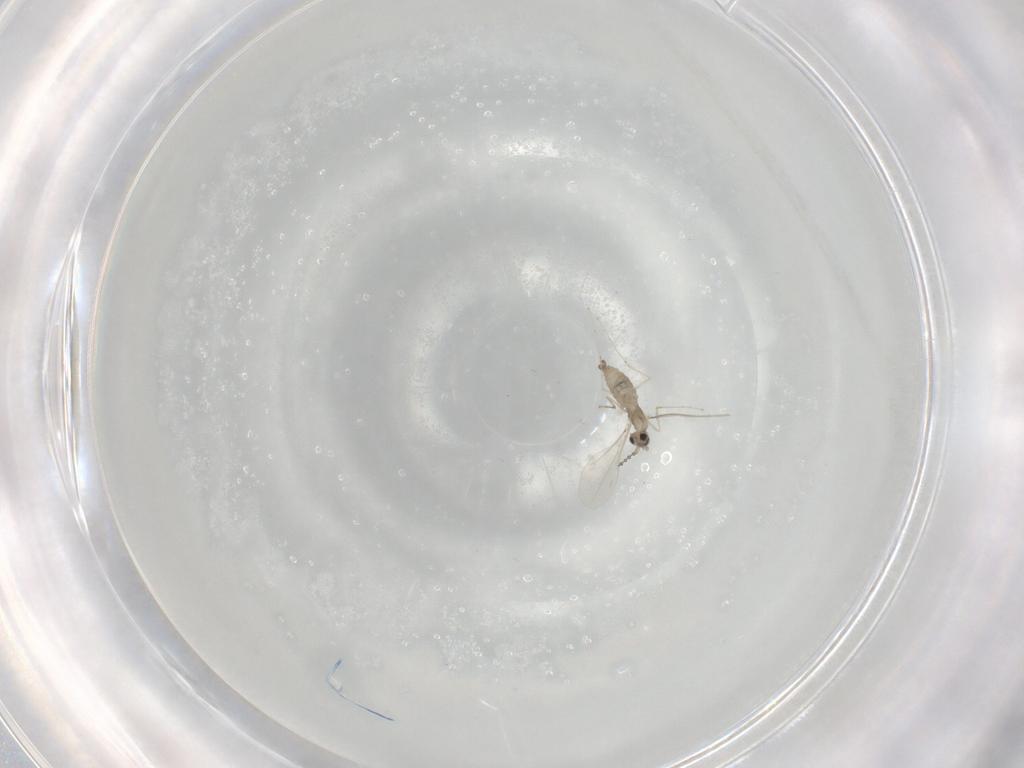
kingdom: Animalia
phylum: Arthropoda
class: Insecta
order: Diptera
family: Cecidomyiidae
